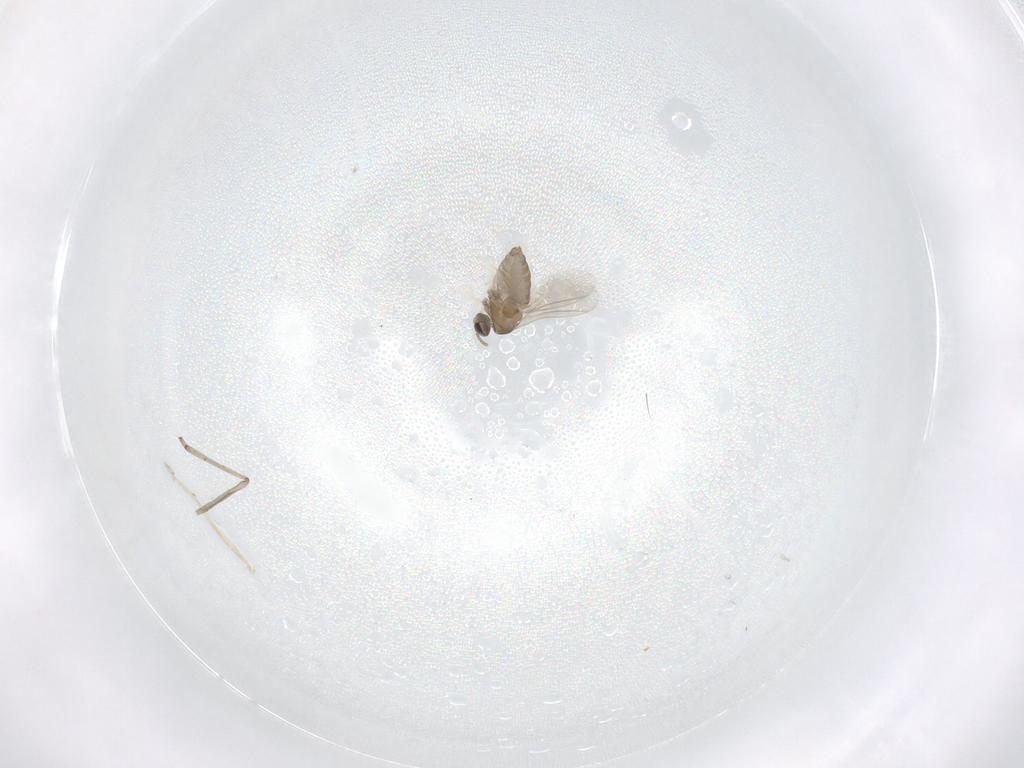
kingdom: Animalia
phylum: Arthropoda
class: Insecta
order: Diptera
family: Cecidomyiidae
